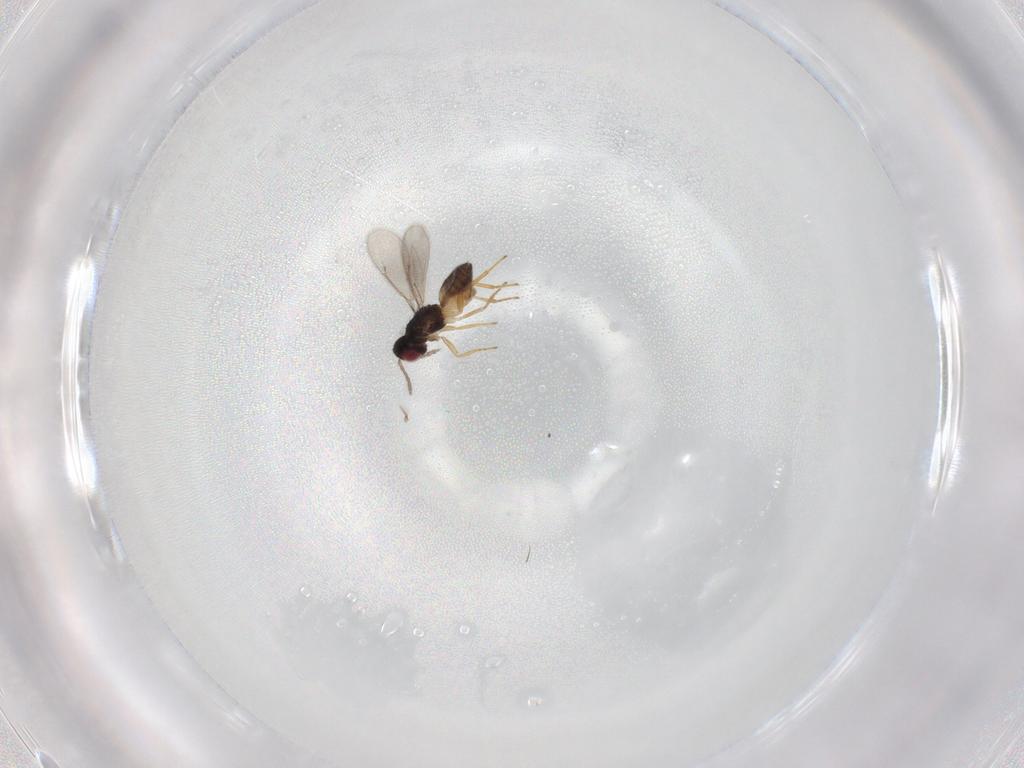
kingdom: Animalia
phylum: Arthropoda
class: Insecta
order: Hymenoptera
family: Eulophidae
